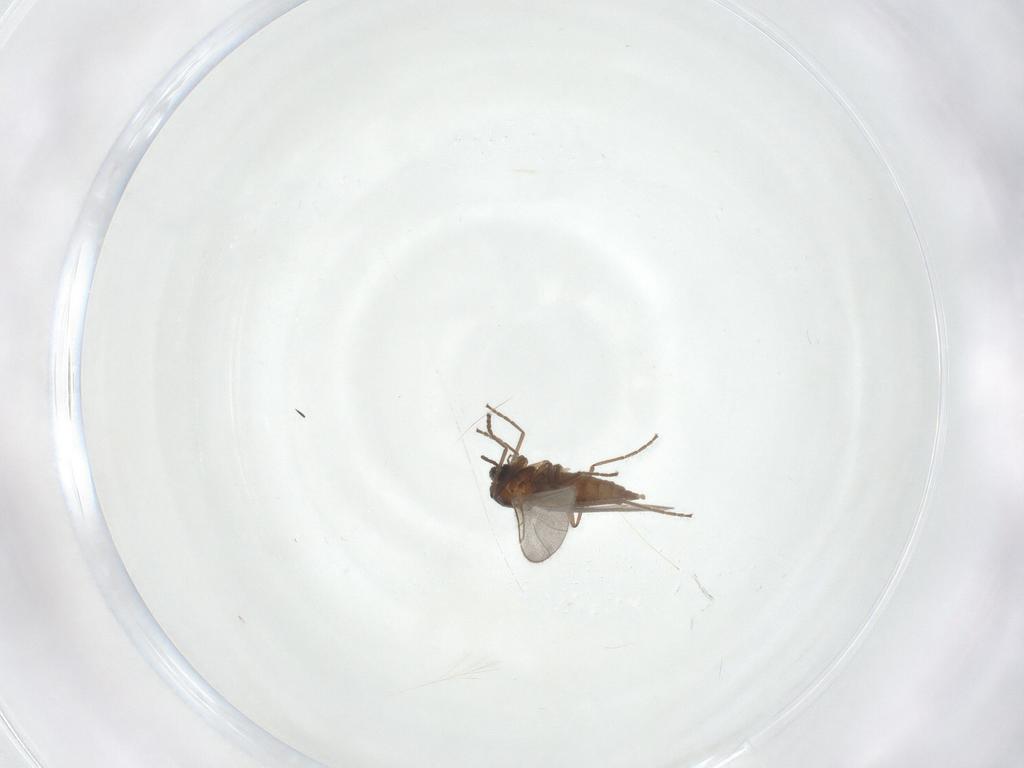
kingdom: Animalia
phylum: Arthropoda
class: Insecta
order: Diptera
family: Cecidomyiidae
